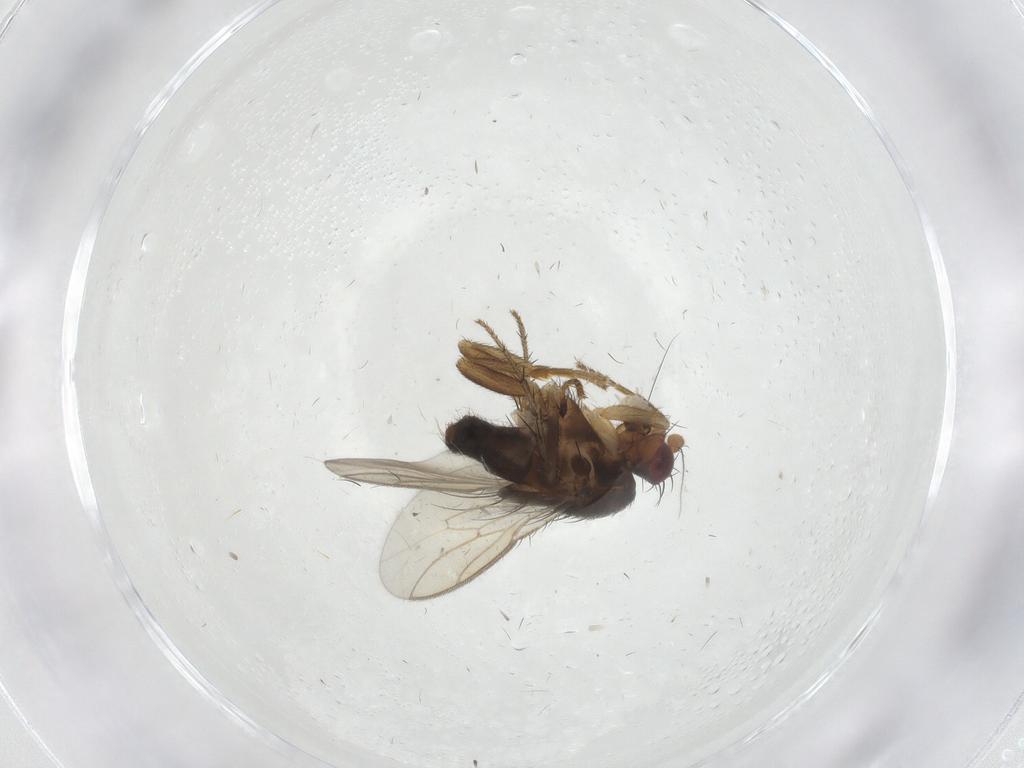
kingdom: Animalia
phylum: Arthropoda
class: Insecta
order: Diptera
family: Sphaeroceridae
